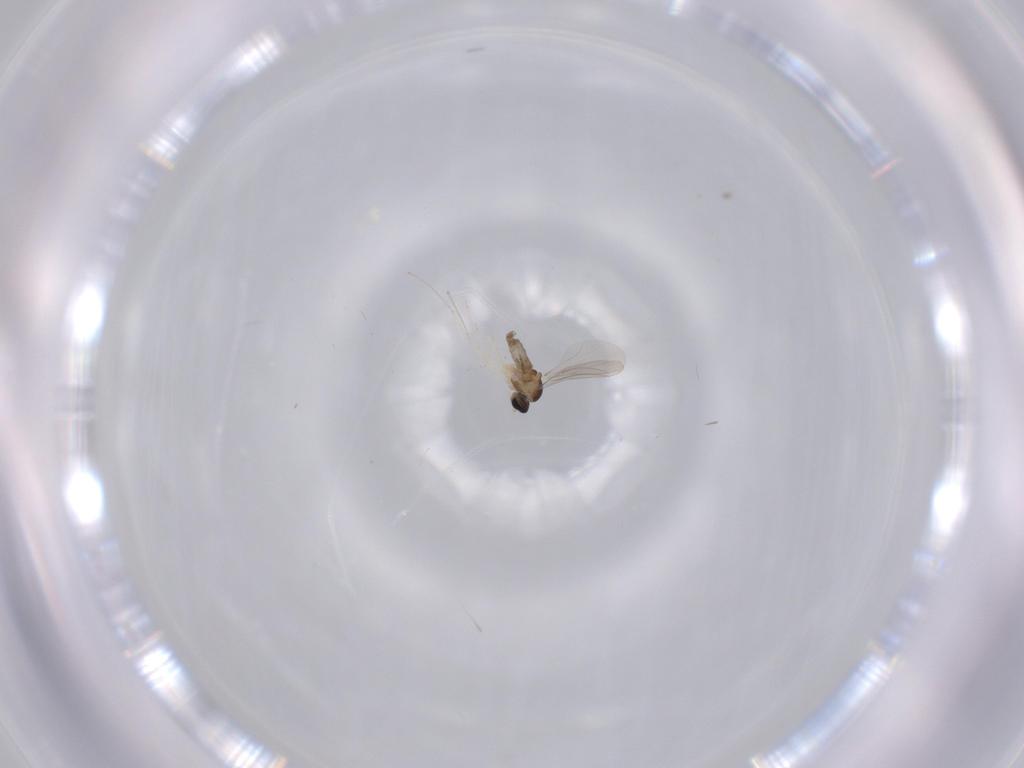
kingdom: Animalia
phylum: Arthropoda
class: Insecta
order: Diptera
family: Cecidomyiidae
